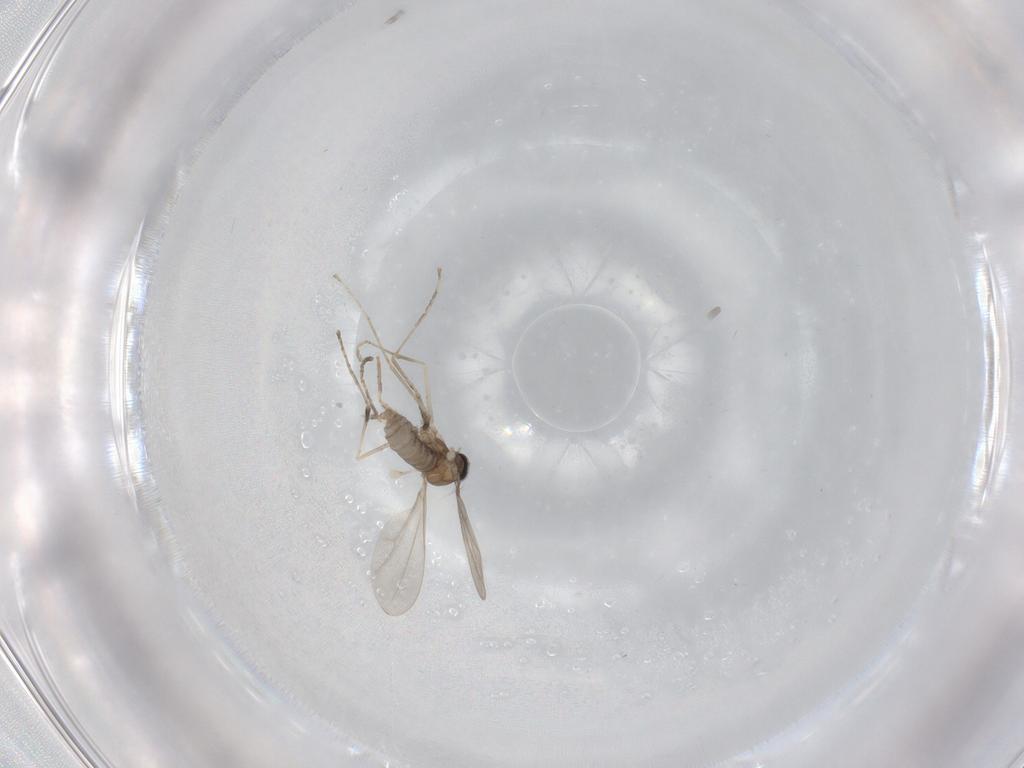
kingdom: Animalia
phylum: Arthropoda
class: Insecta
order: Diptera
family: Cecidomyiidae
